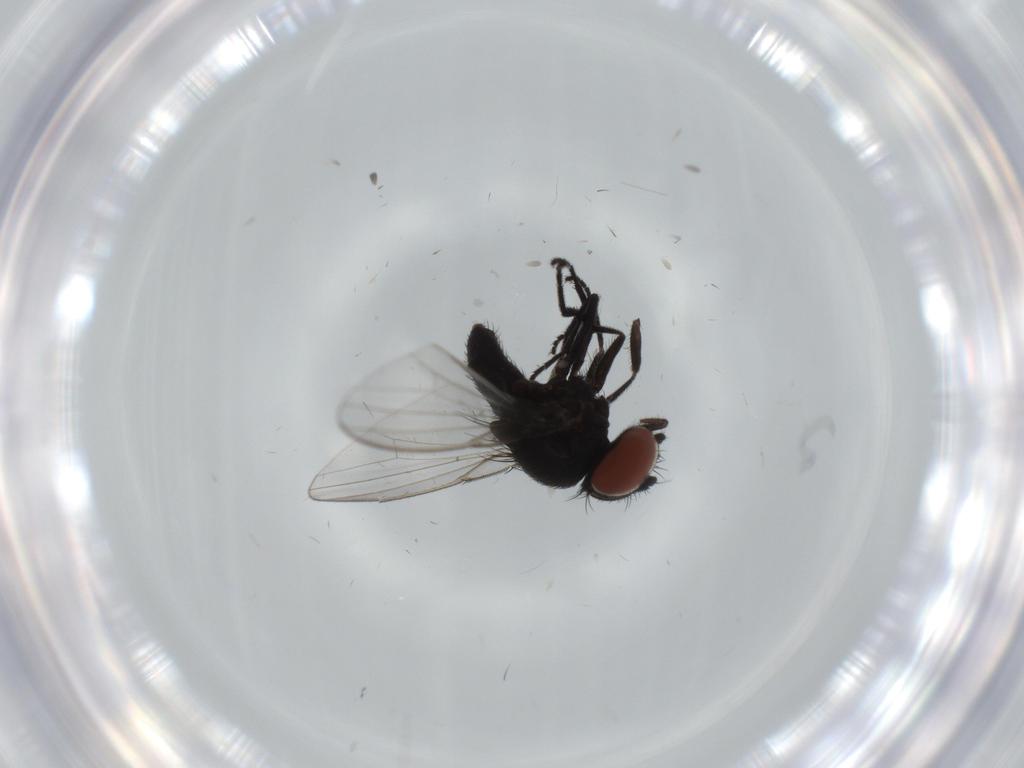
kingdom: Animalia
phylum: Arthropoda
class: Insecta
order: Diptera
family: Milichiidae
